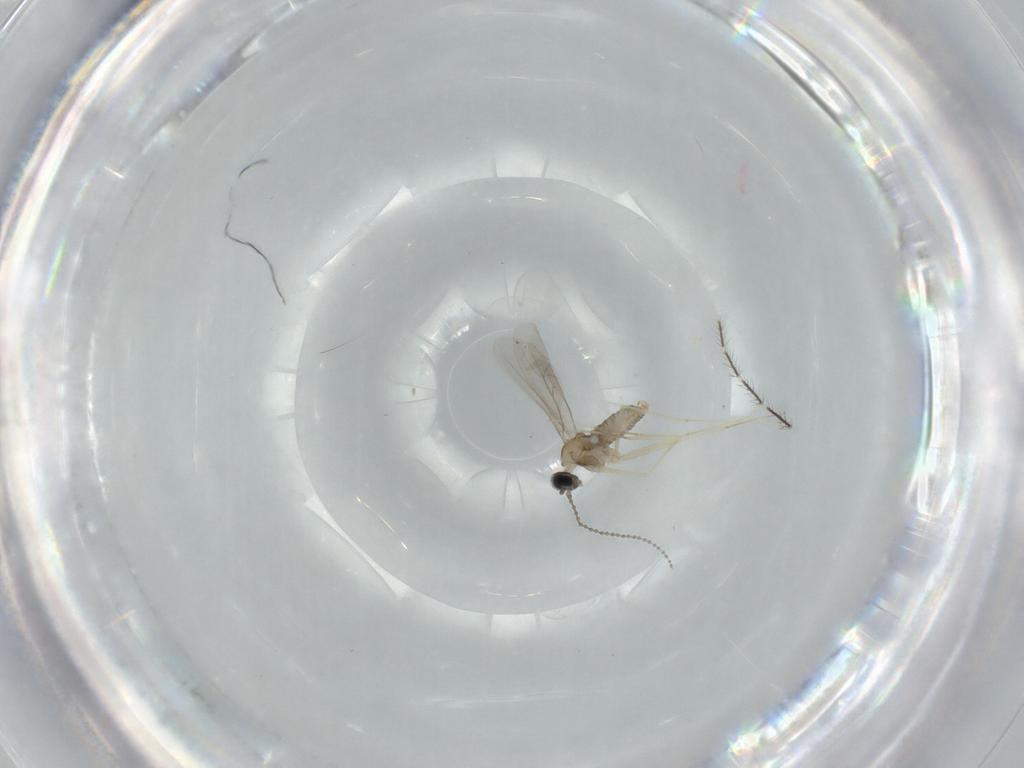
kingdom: Animalia
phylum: Arthropoda
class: Insecta
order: Diptera
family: Cecidomyiidae
